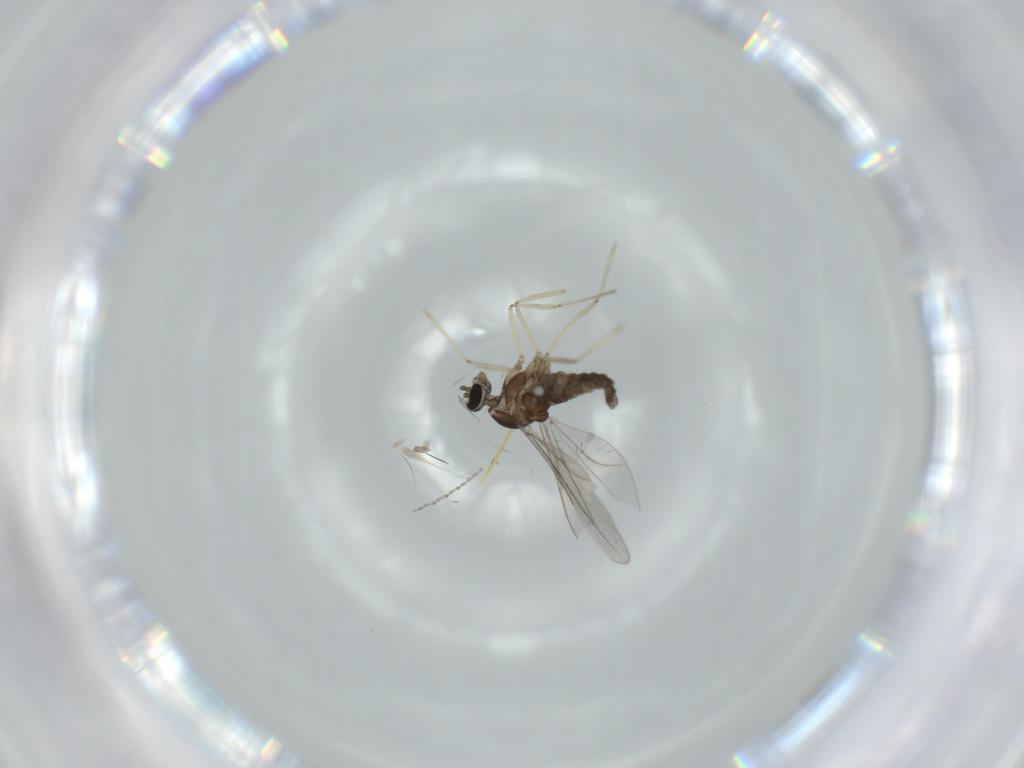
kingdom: Animalia
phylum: Arthropoda
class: Insecta
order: Diptera
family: Cecidomyiidae
